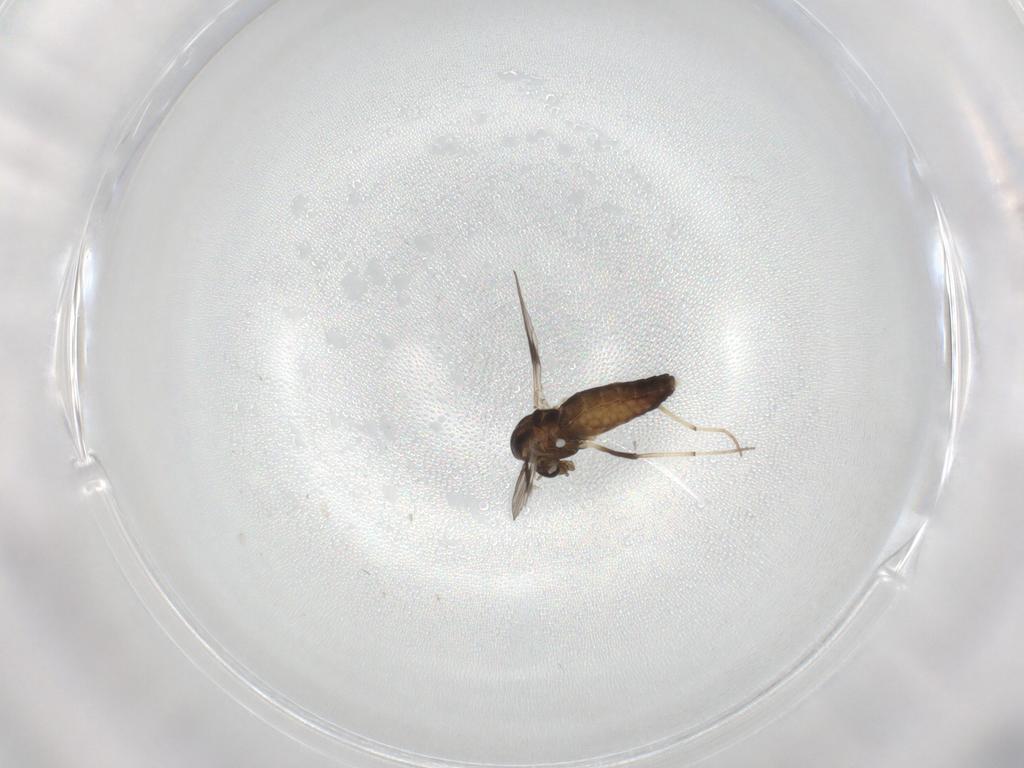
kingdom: Animalia
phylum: Arthropoda
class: Insecta
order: Diptera
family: Chironomidae
